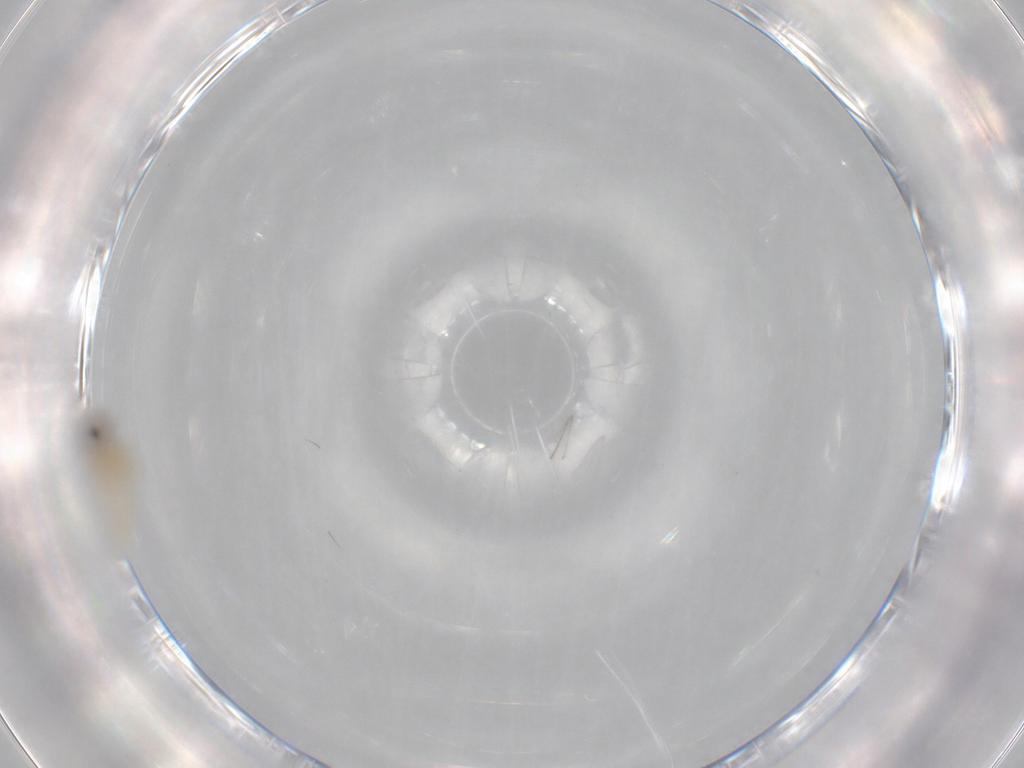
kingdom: Animalia
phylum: Arthropoda
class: Insecta
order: Diptera
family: Cecidomyiidae
